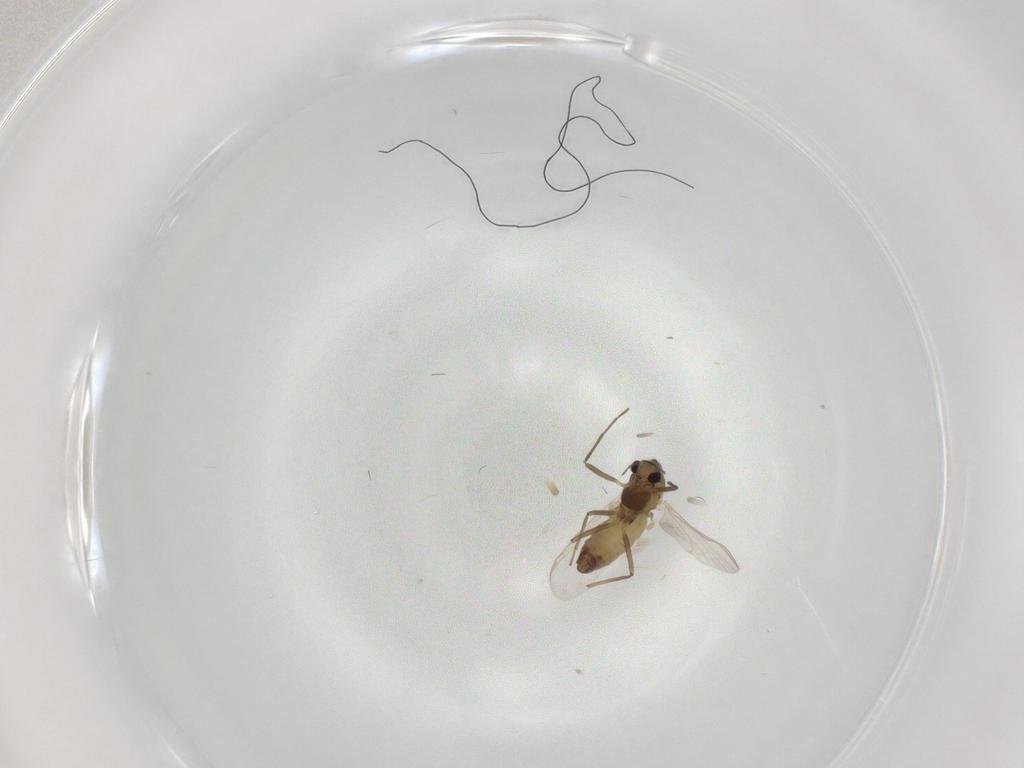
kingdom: Animalia
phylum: Arthropoda
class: Insecta
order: Diptera
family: Chironomidae
